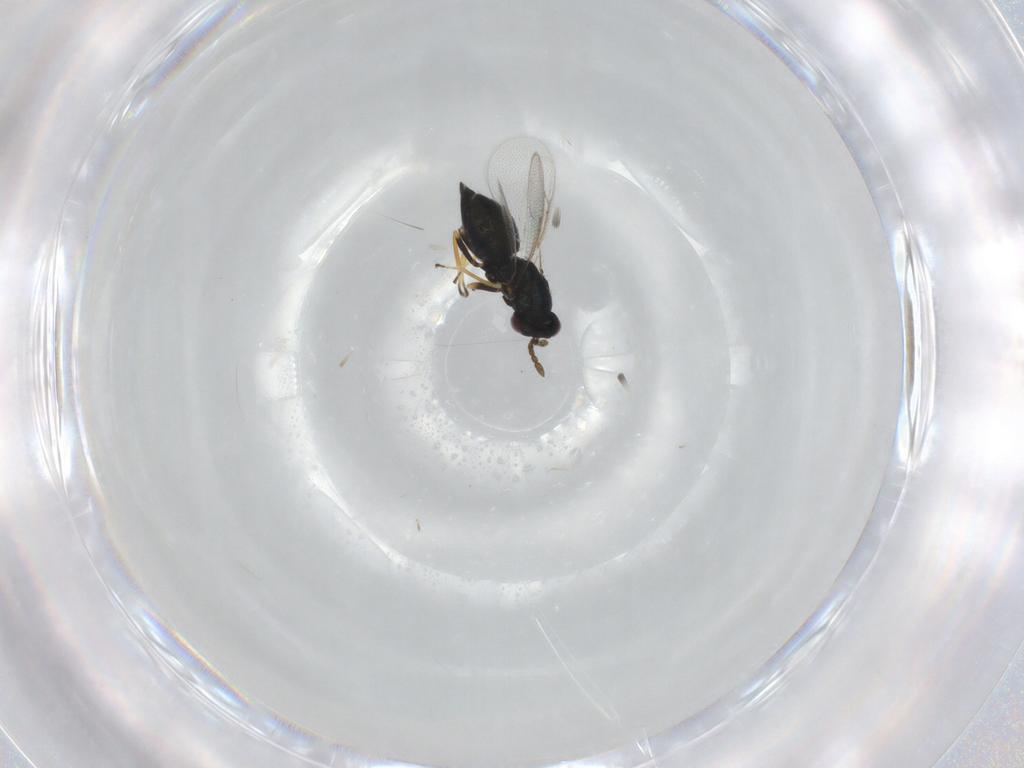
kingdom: Animalia
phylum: Arthropoda
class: Insecta
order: Hymenoptera
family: Eulophidae
